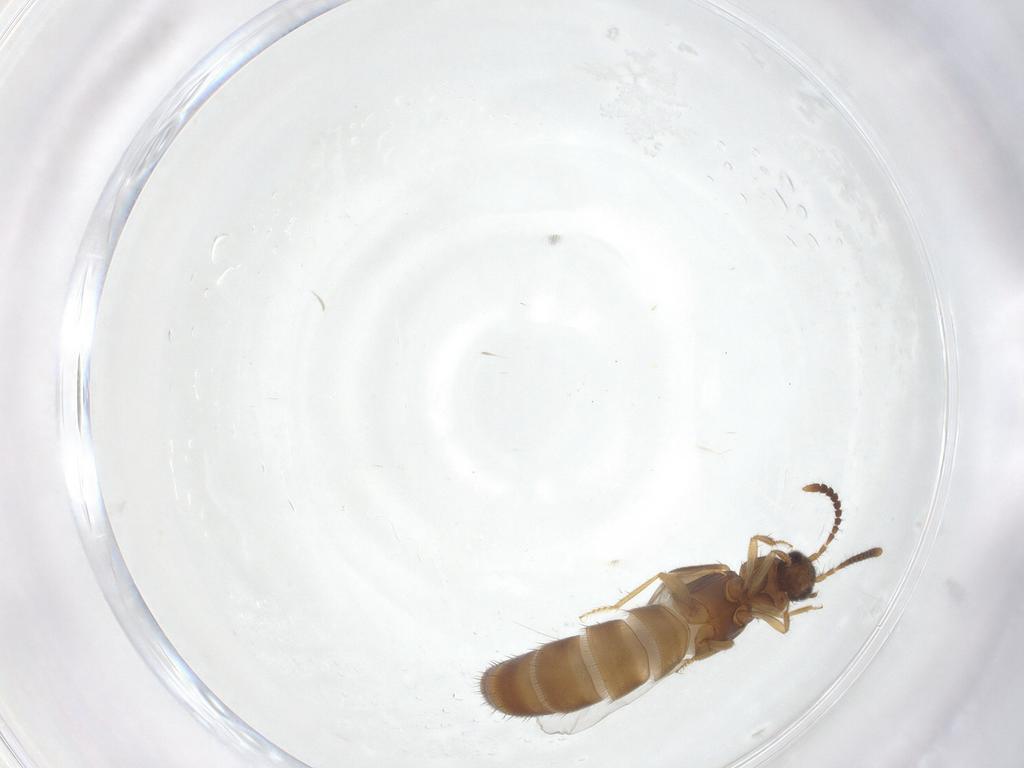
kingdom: Animalia
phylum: Arthropoda
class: Insecta
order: Coleoptera
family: Staphylinidae
